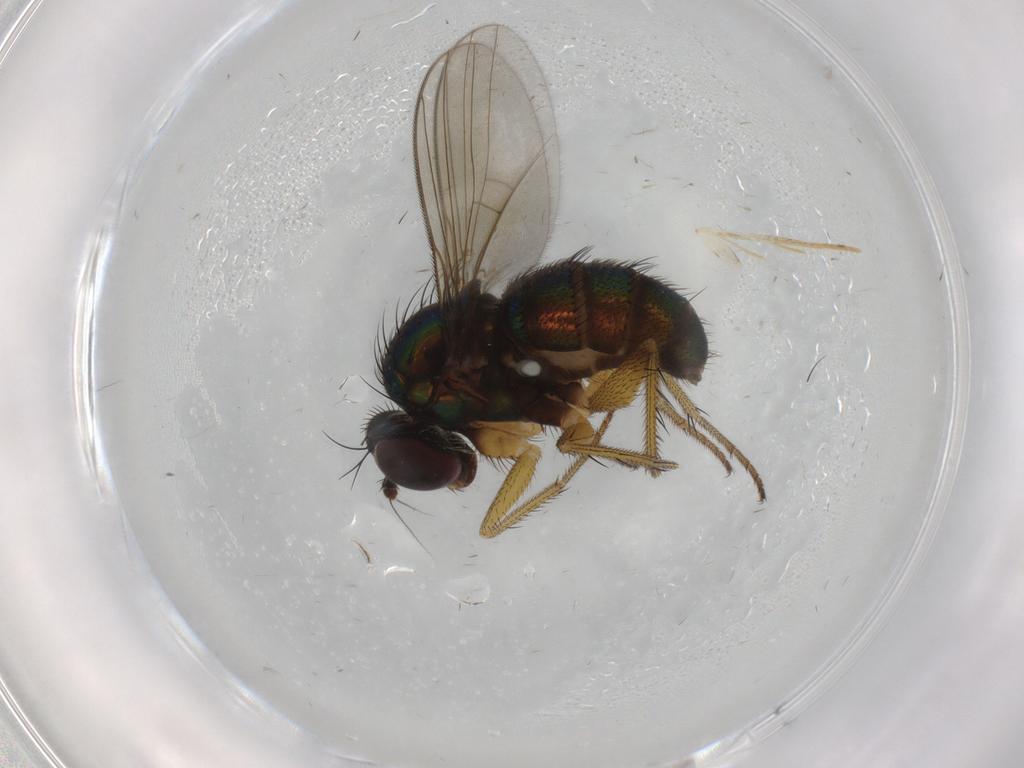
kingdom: Animalia
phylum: Arthropoda
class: Insecta
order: Diptera
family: Dolichopodidae
